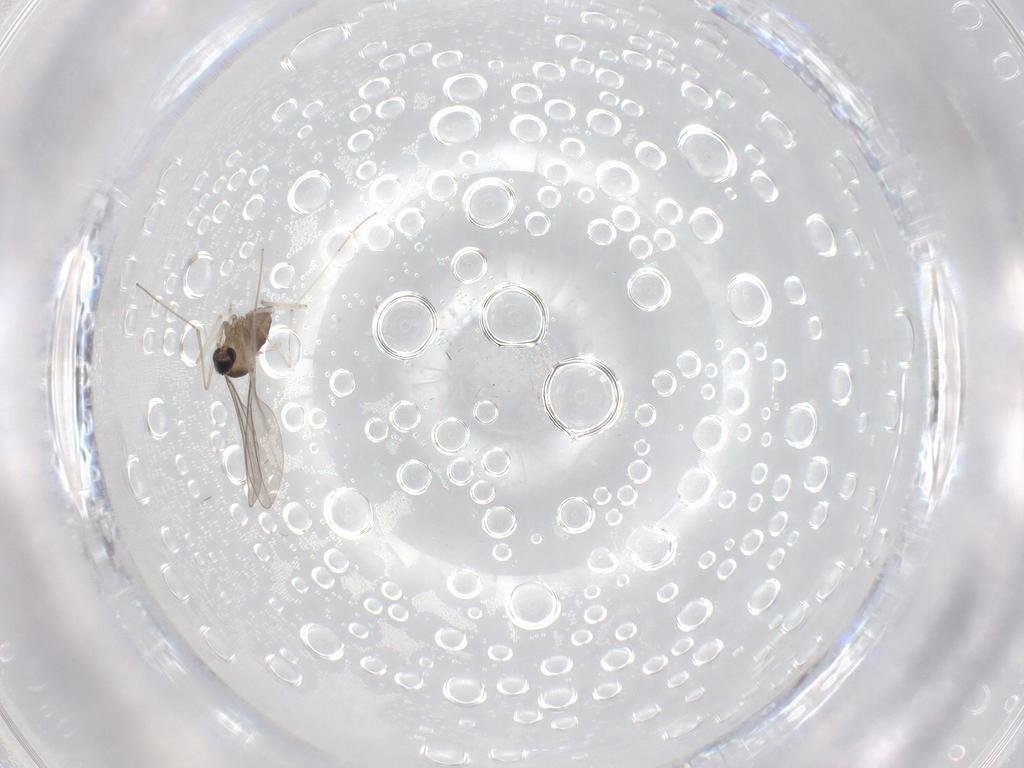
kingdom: Animalia
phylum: Arthropoda
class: Insecta
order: Diptera
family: Cecidomyiidae
